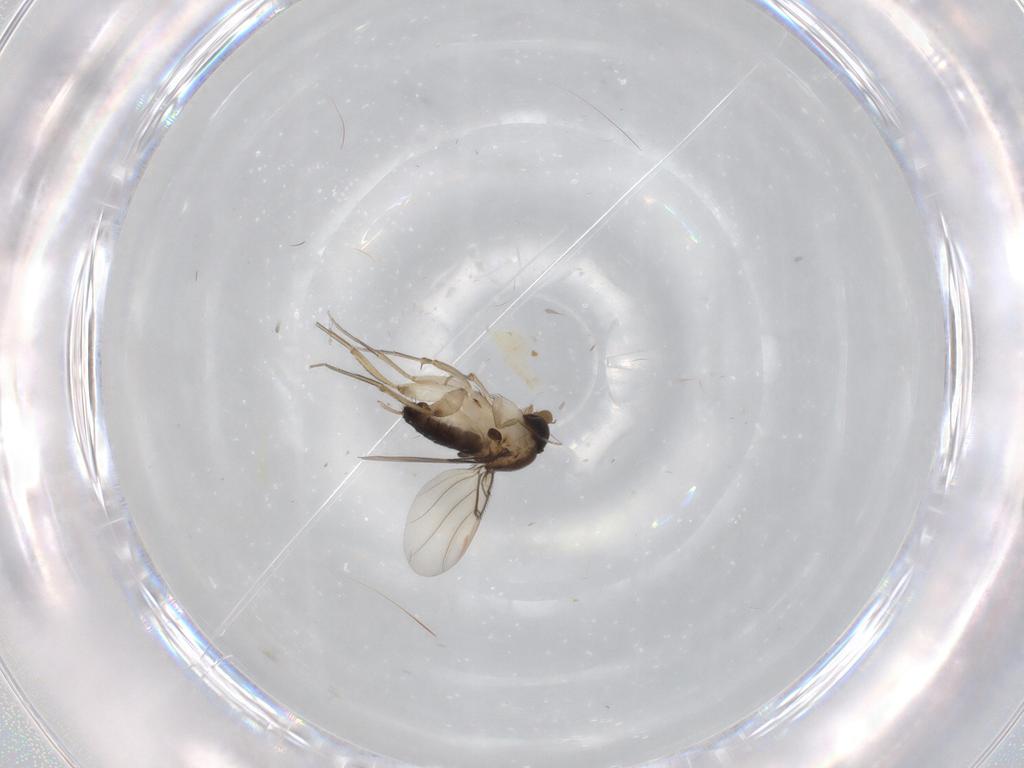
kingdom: Animalia
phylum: Arthropoda
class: Insecta
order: Diptera
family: Phoridae
